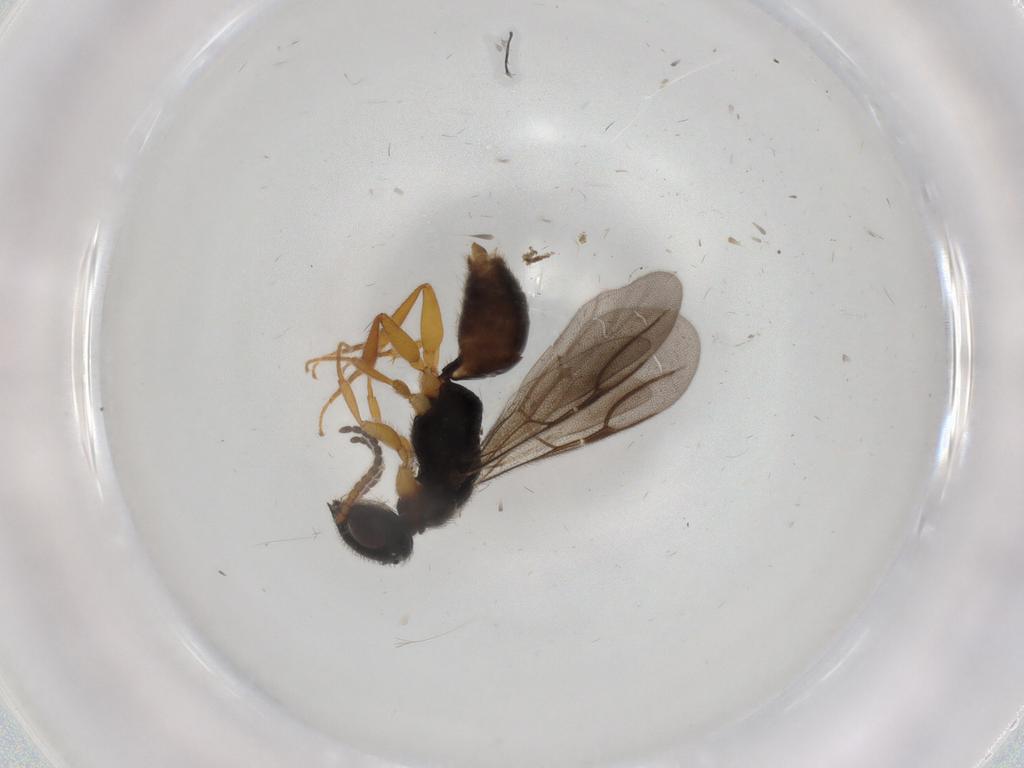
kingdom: Animalia
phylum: Arthropoda
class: Insecta
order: Hymenoptera
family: Bethylidae
